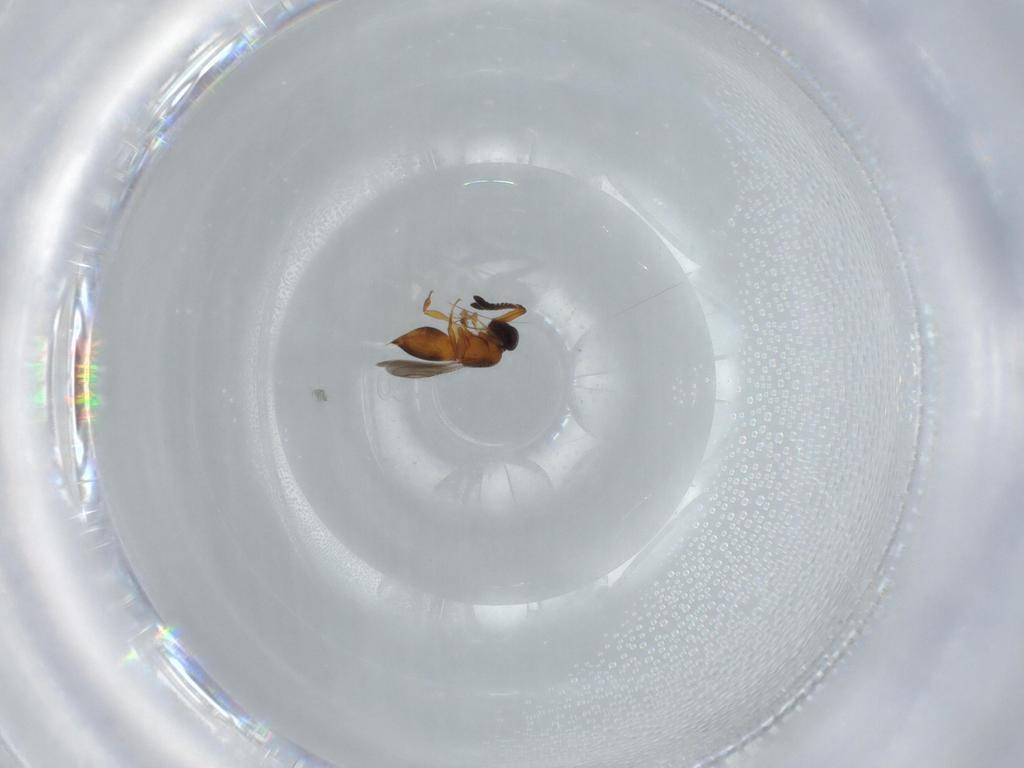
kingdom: Animalia
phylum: Arthropoda
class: Insecta
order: Hymenoptera
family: Ceraphronidae
